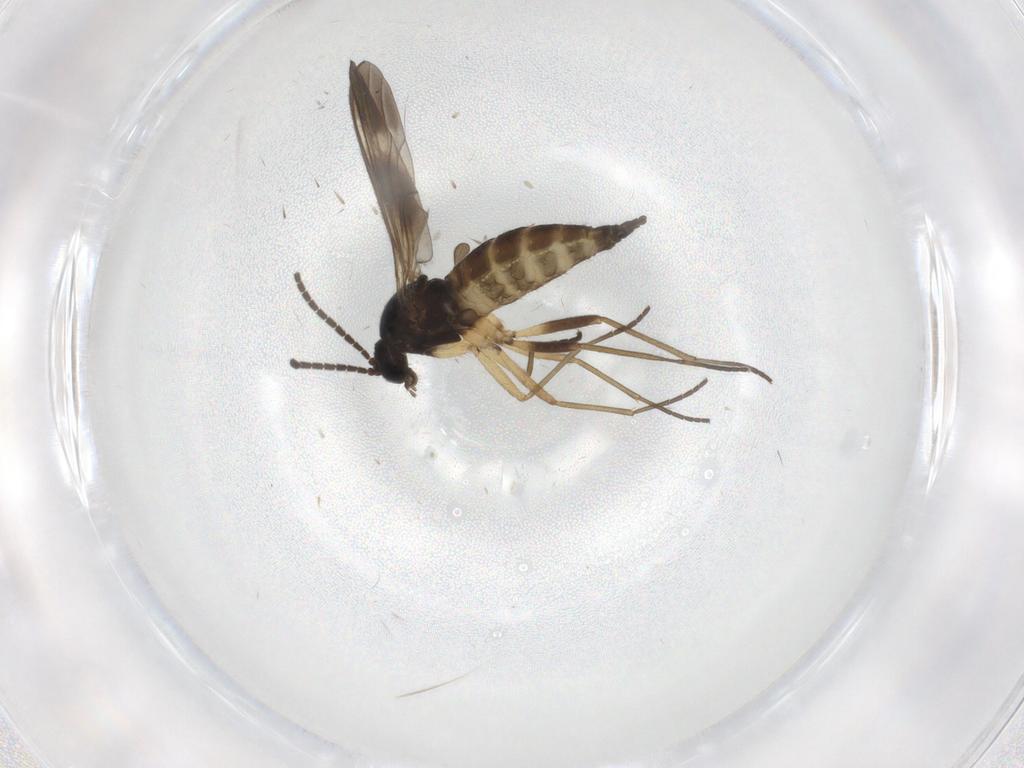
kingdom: Animalia
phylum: Arthropoda
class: Insecta
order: Diptera
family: Sciaridae
